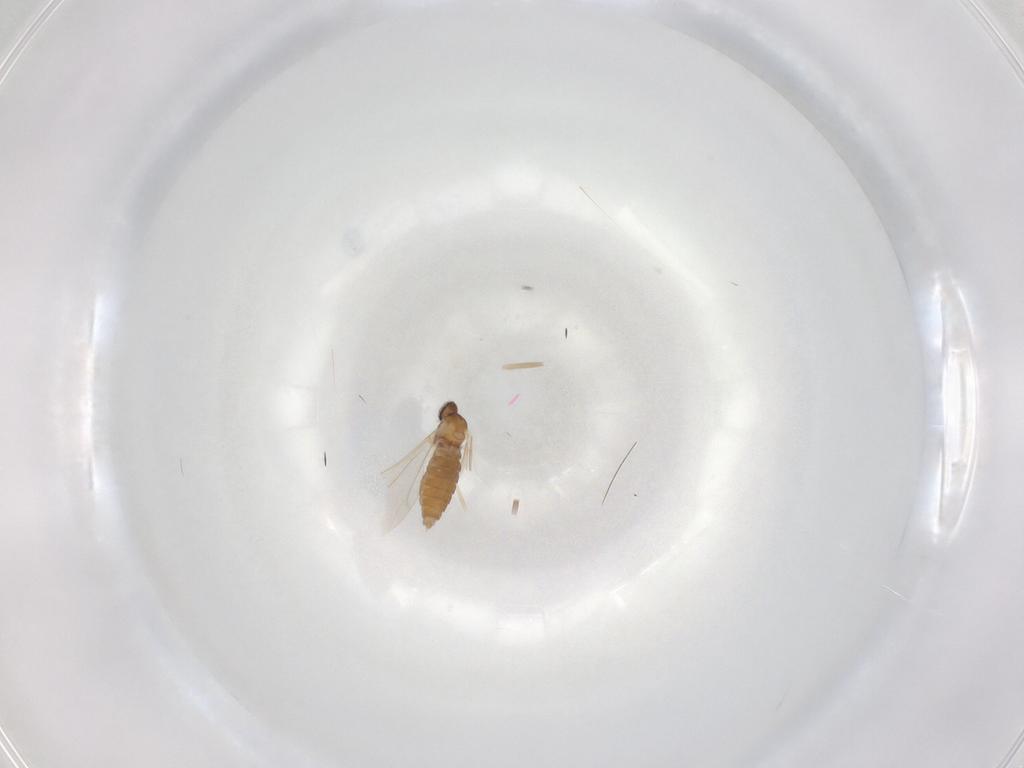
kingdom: Animalia
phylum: Arthropoda
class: Insecta
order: Diptera
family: Cecidomyiidae
